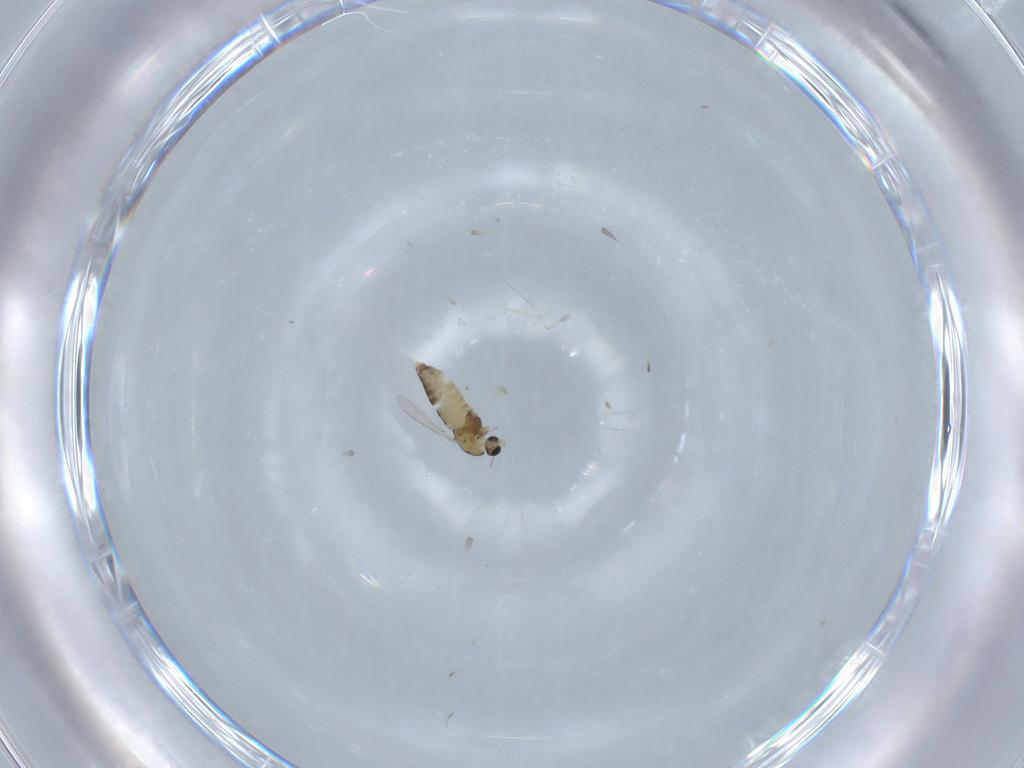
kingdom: Animalia
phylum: Arthropoda
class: Insecta
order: Diptera
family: Chironomidae
